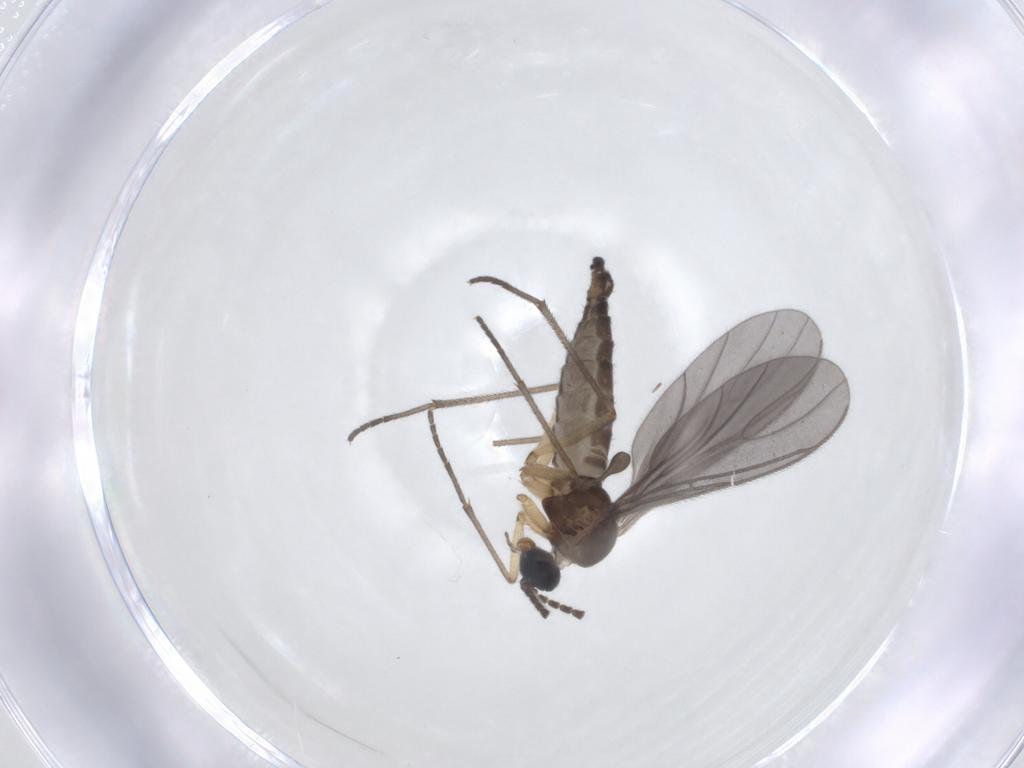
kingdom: Animalia
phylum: Arthropoda
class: Insecta
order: Diptera
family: Sciaridae
